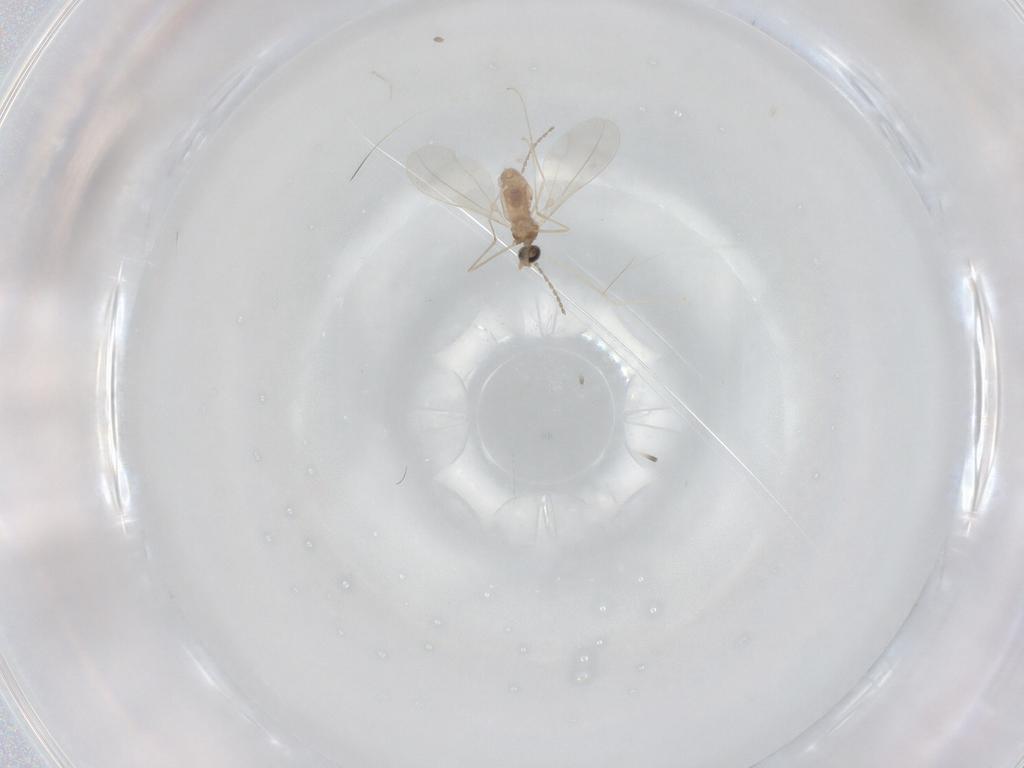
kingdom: Animalia
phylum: Arthropoda
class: Insecta
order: Diptera
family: Cecidomyiidae
